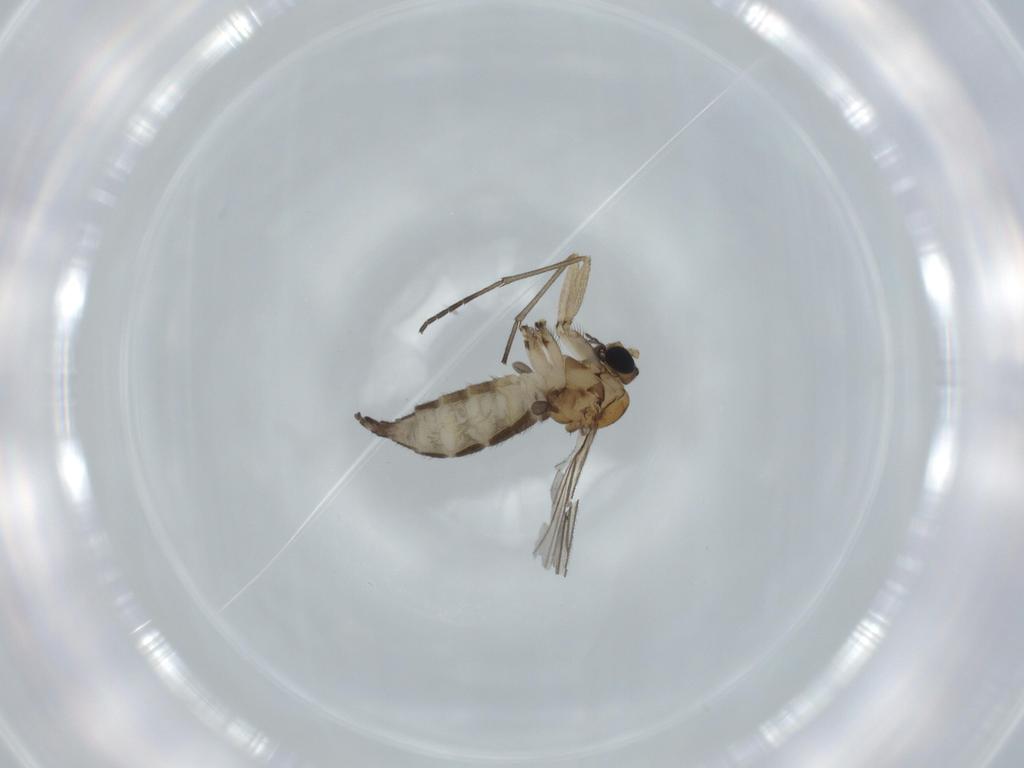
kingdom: Animalia
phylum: Arthropoda
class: Insecta
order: Diptera
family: Sciaridae
